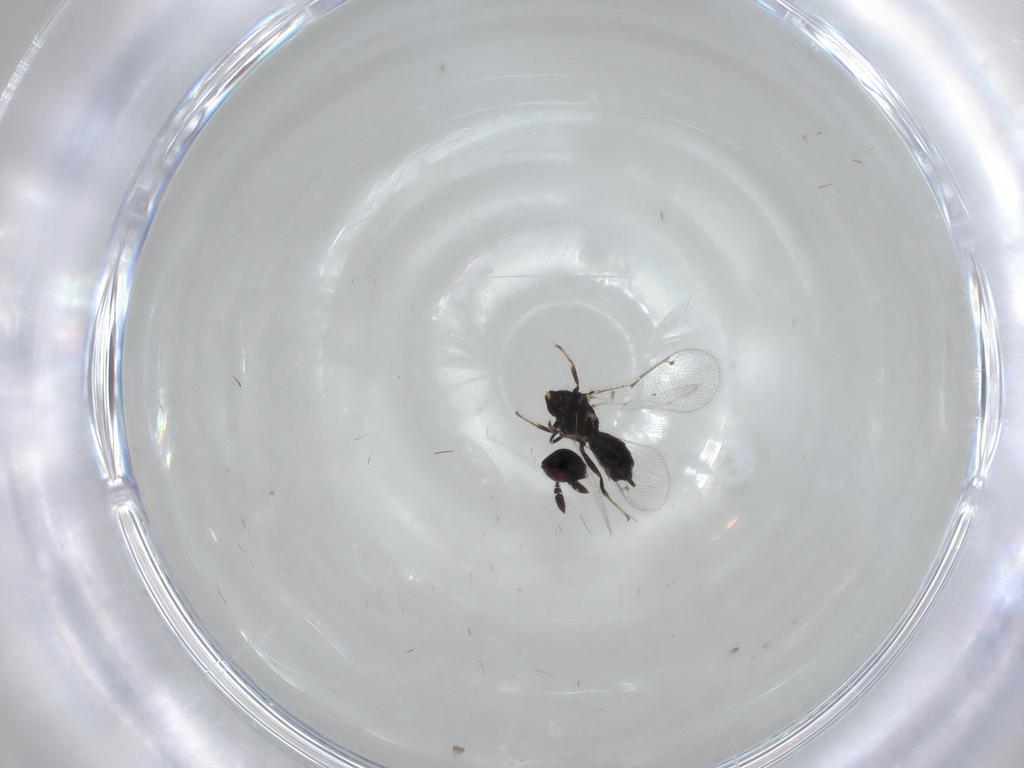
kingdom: Animalia
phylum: Arthropoda
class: Insecta
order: Hymenoptera
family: Pteromalidae
